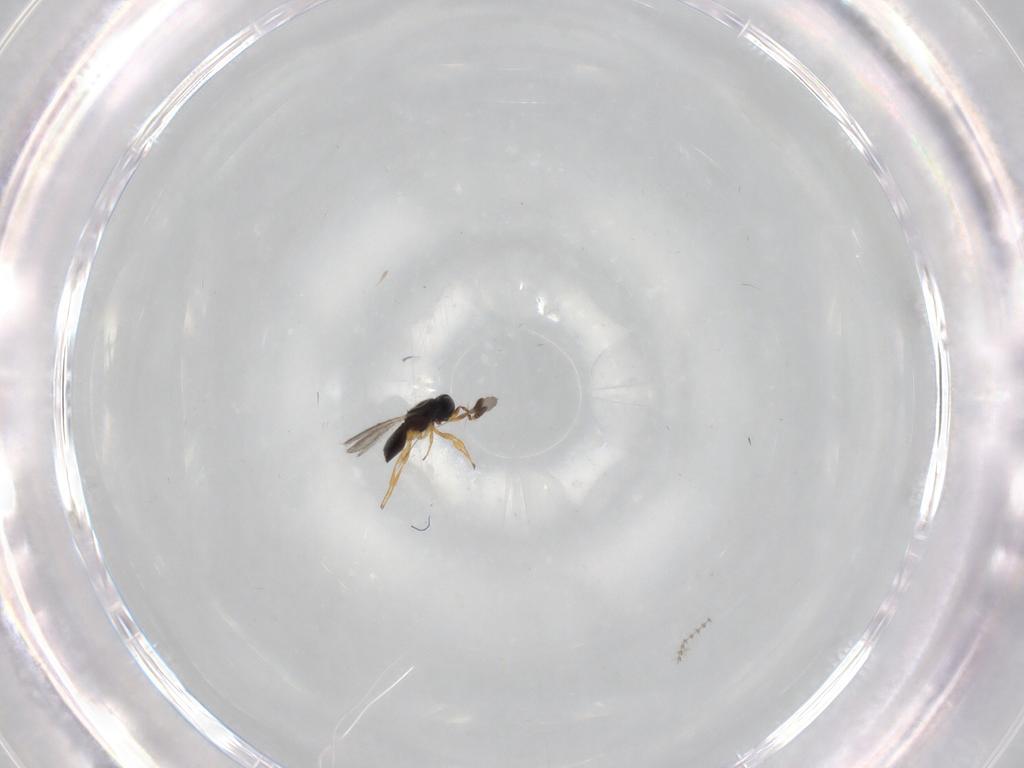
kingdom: Animalia
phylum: Arthropoda
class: Insecta
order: Hymenoptera
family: Scelionidae
